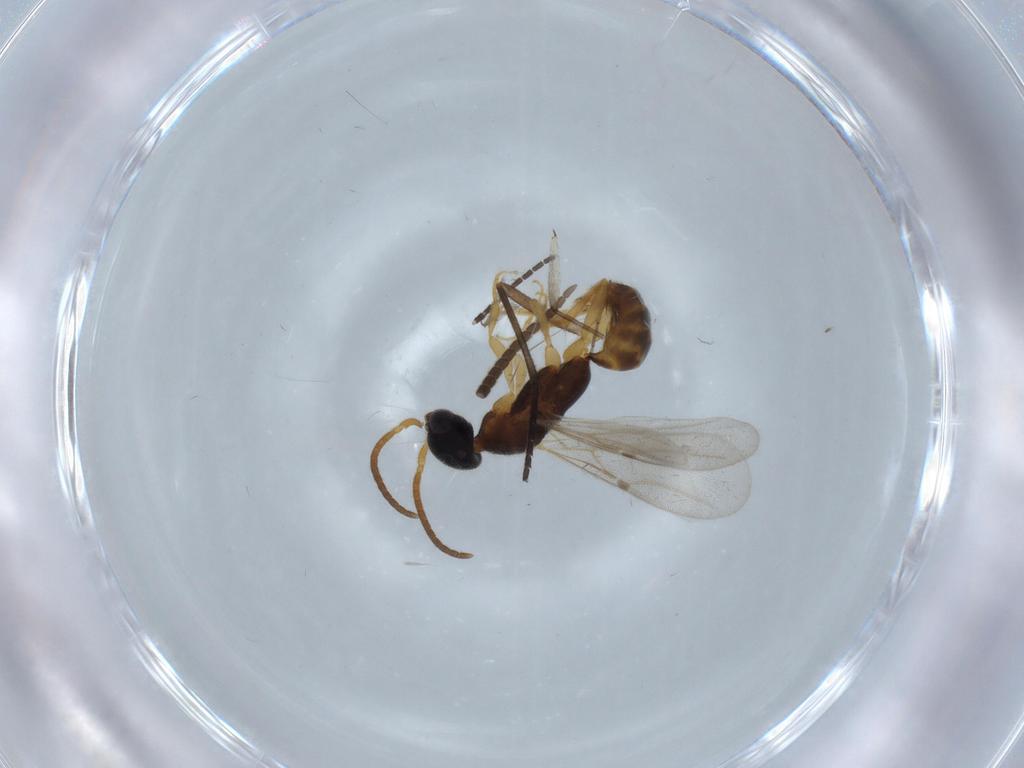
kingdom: Animalia
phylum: Arthropoda
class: Insecta
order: Hymenoptera
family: Bethylidae
